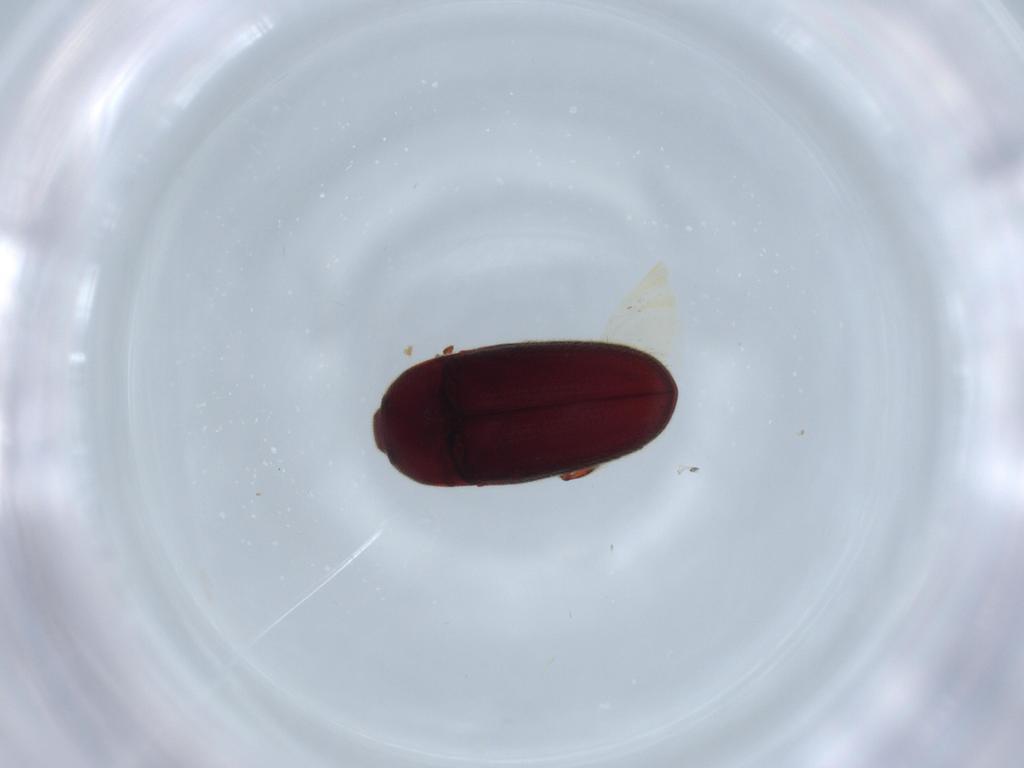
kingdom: Animalia
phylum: Arthropoda
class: Insecta
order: Coleoptera
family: Throscidae
